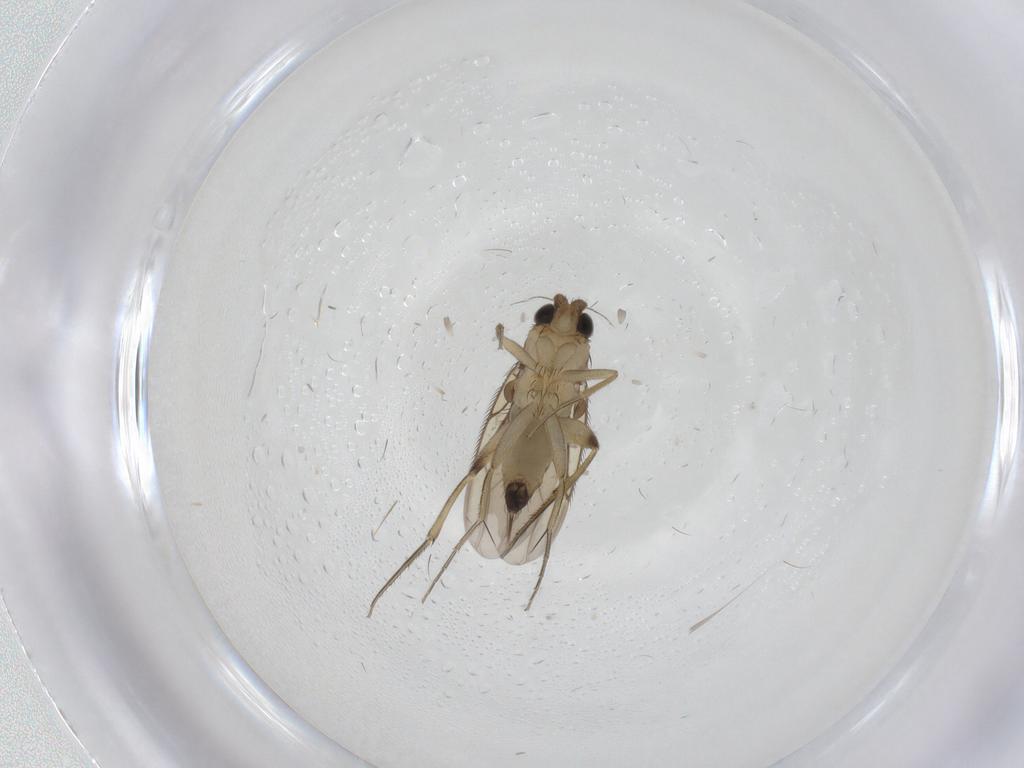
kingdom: Animalia
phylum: Arthropoda
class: Insecta
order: Diptera
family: Phoridae
